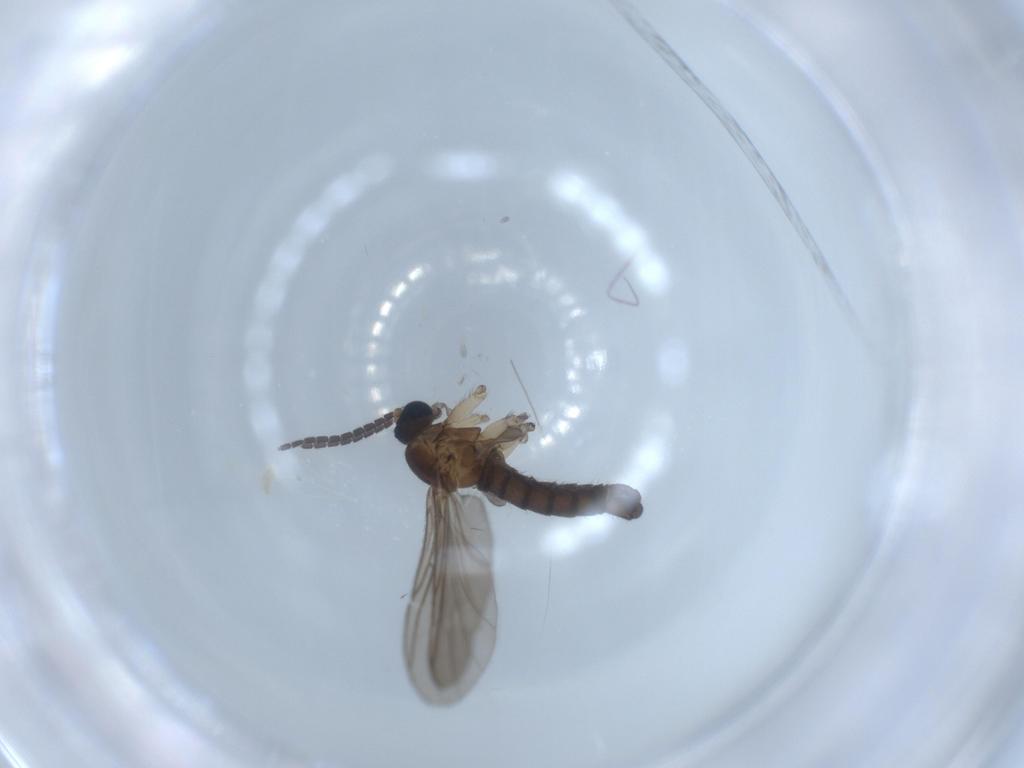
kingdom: Animalia
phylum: Arthropoda
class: Insecta
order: Diptera
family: Sciaridae
